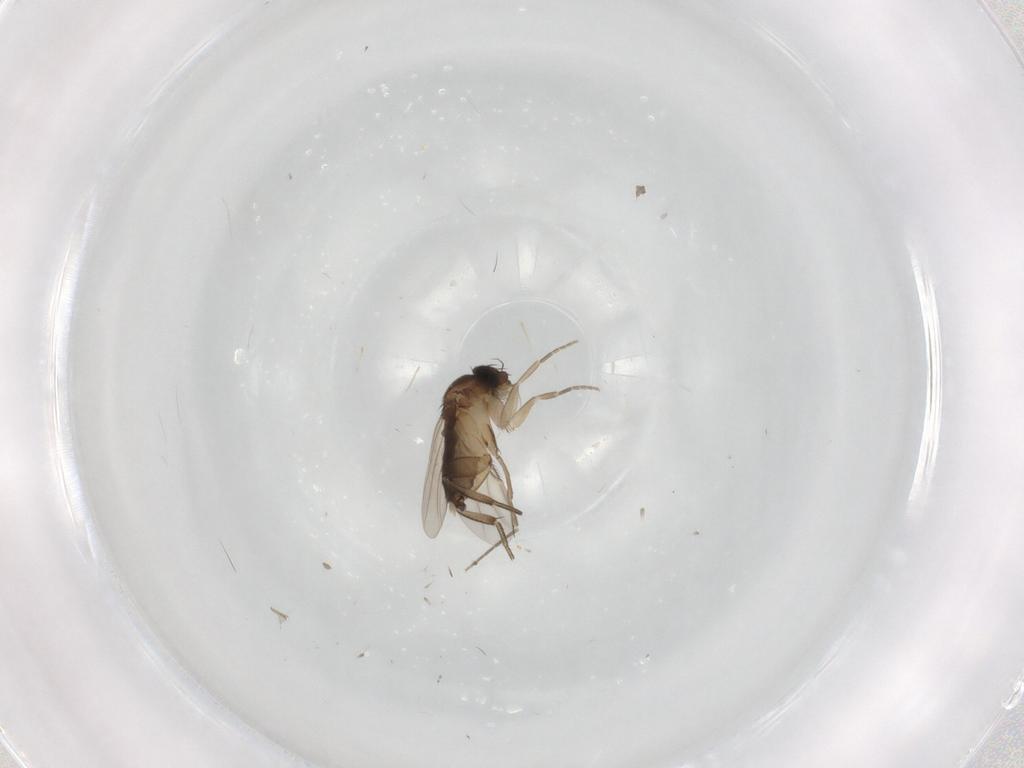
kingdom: Animalia
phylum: Arthropoda
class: Insecta
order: Diptera
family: Phoridae
